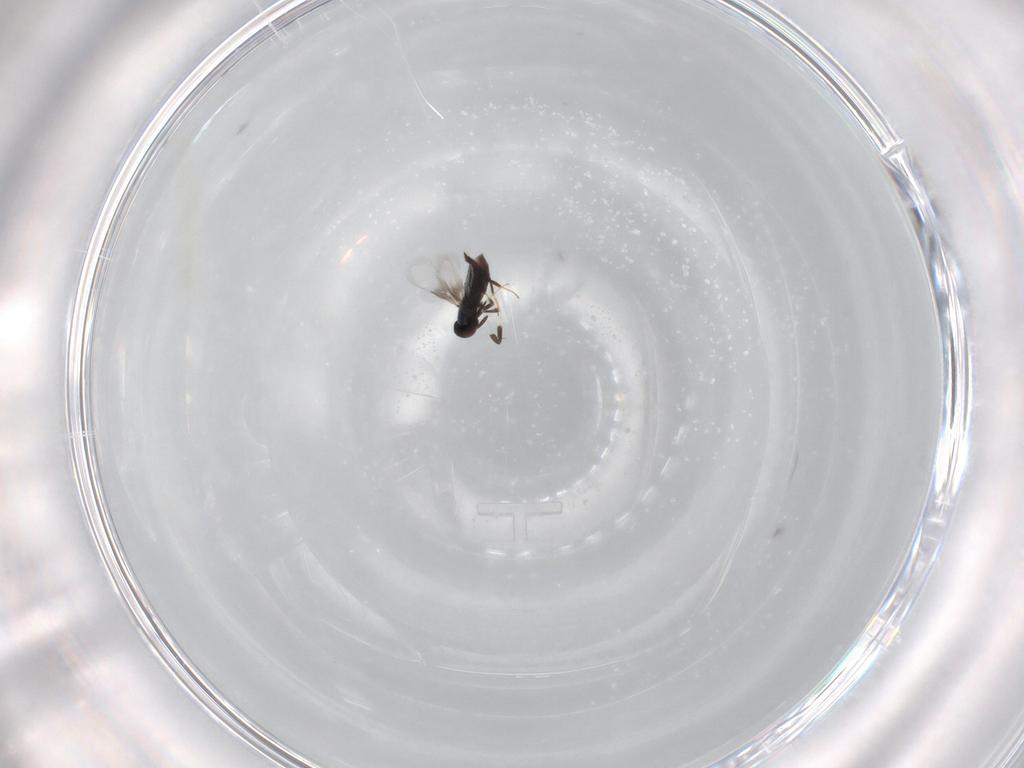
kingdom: Animalia
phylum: Arthropoda
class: Insecta
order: Hymenoptera
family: Signiphoridae
